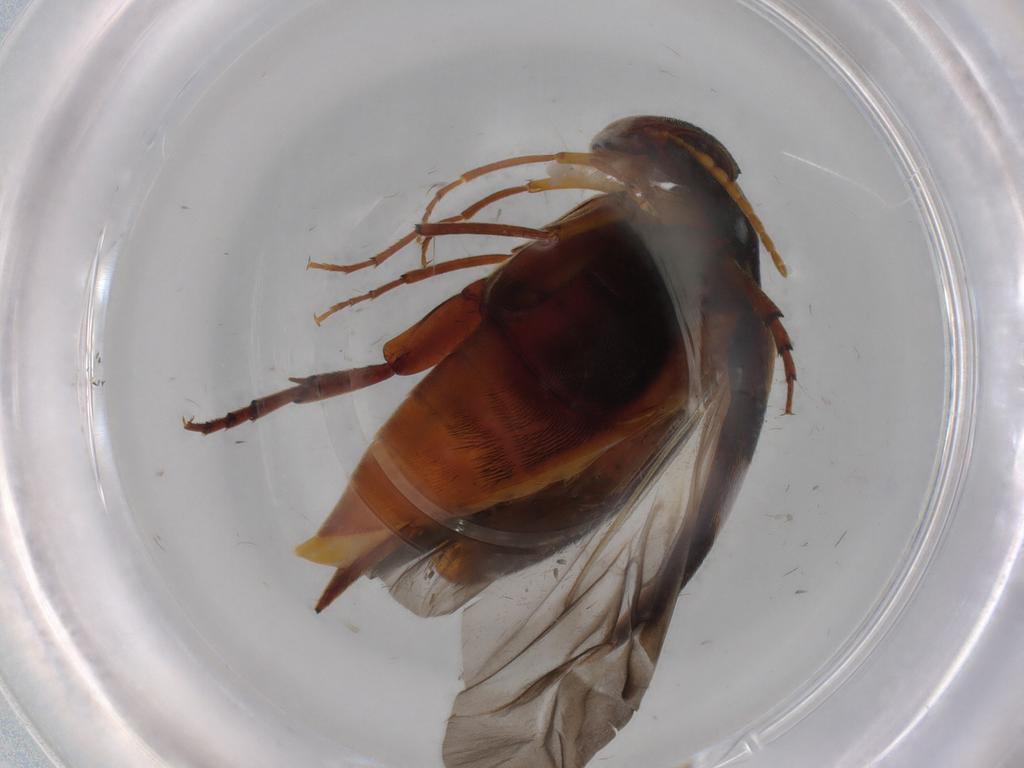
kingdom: Animalia
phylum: Arthropoda
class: Insecta
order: Coleoptera
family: Mordellidae
